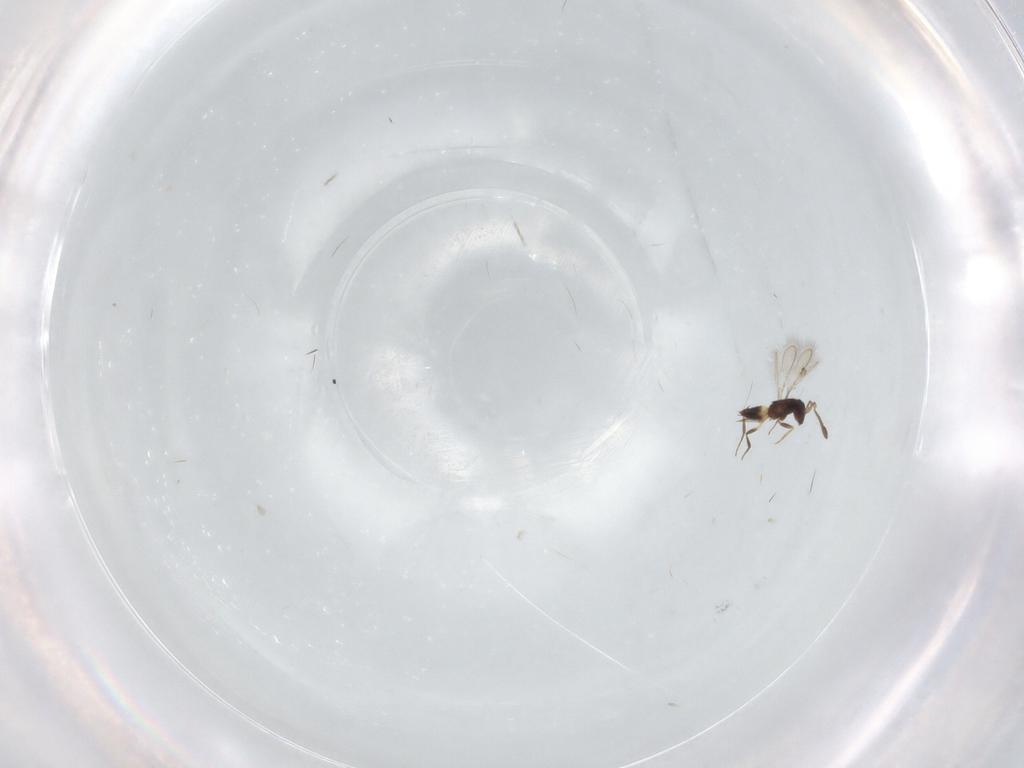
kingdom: Animalia
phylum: Arthropoda
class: Insecta
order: Hymenoptera
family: Mymaridae
